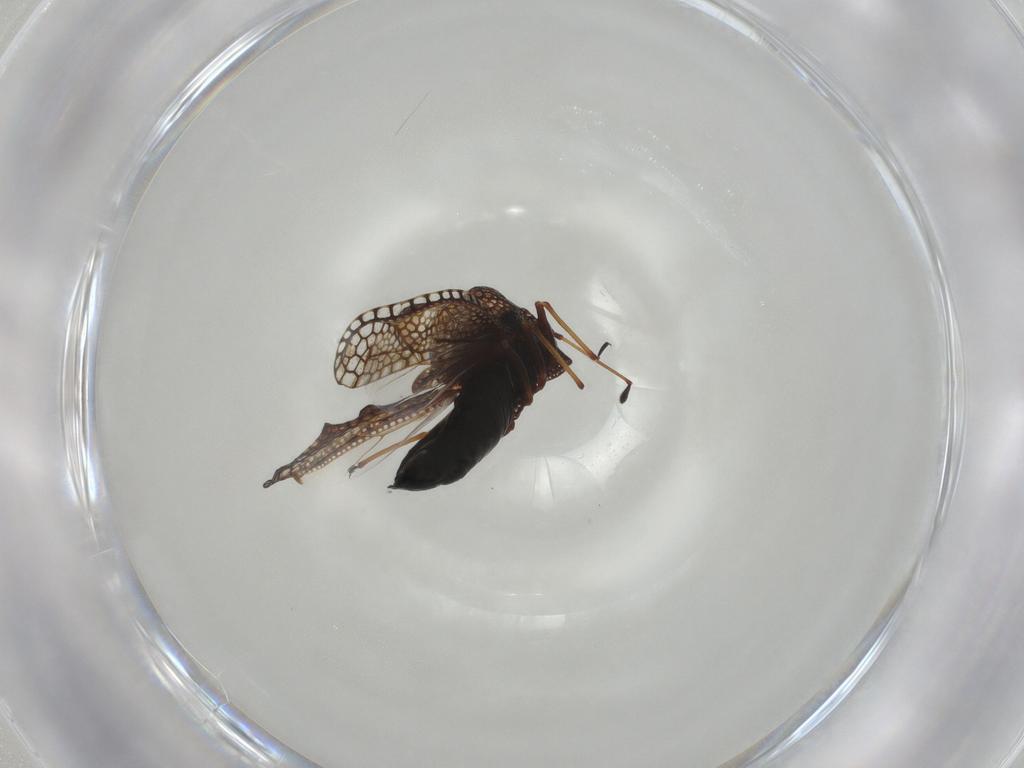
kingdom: Animalia
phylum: Arthropoda
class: Insecta
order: Hemiptera
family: Tingidae
